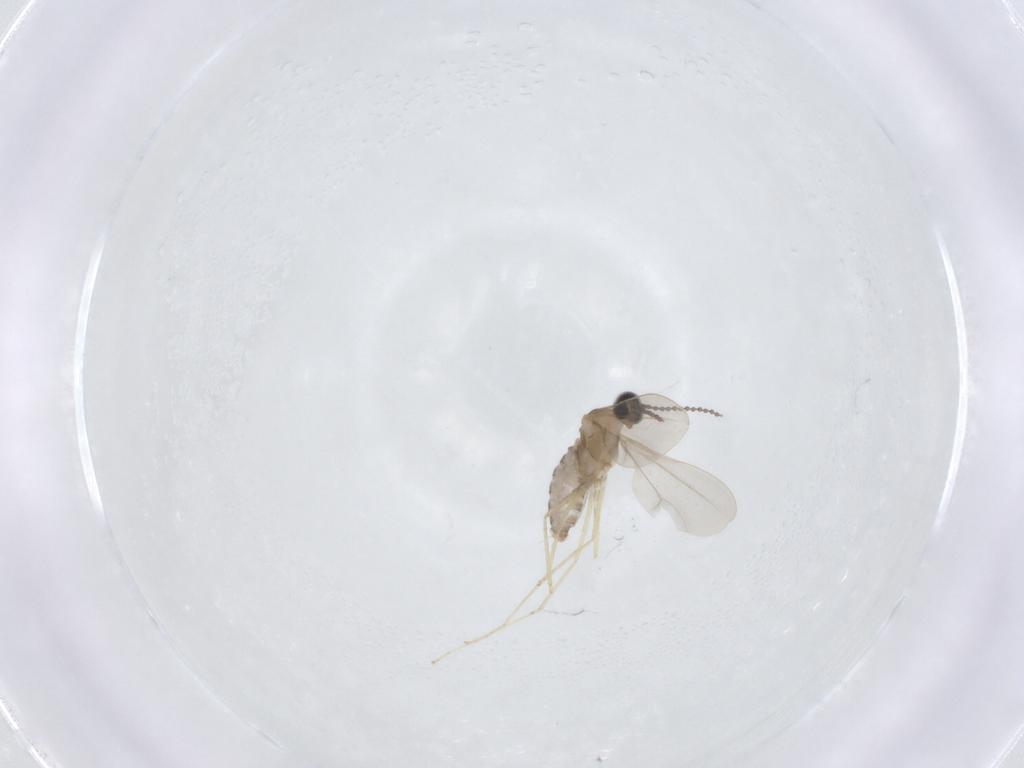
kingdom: Animalia
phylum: Arthropoda
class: Insecta
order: Diptera
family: Cecidomyiidae
